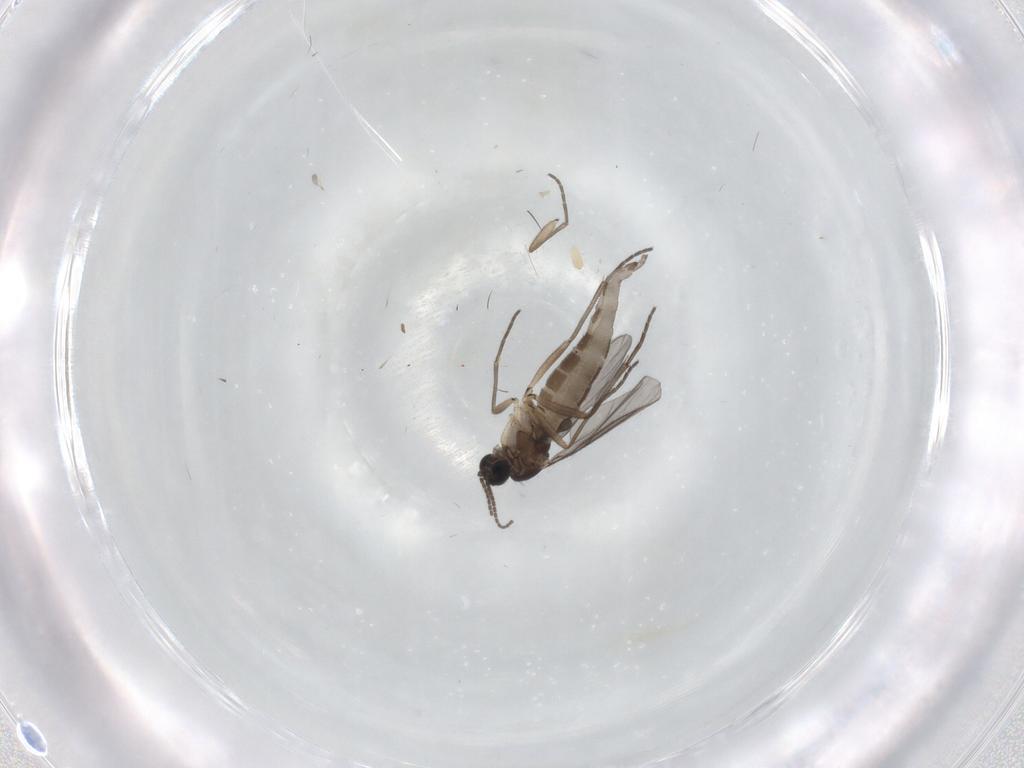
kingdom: Animalia
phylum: Arthropoda
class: Insecta
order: Diptera
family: Sciaridae
